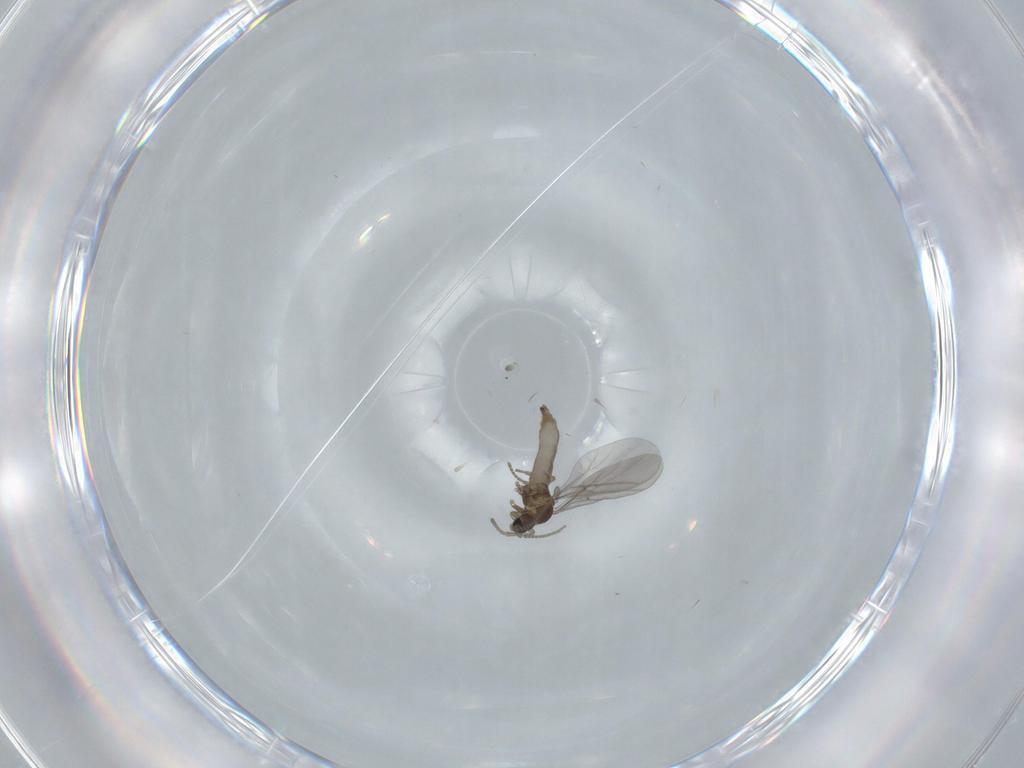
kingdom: Animalia
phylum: Arthropoda
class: Insecta
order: Diptera
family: Sciaridae
